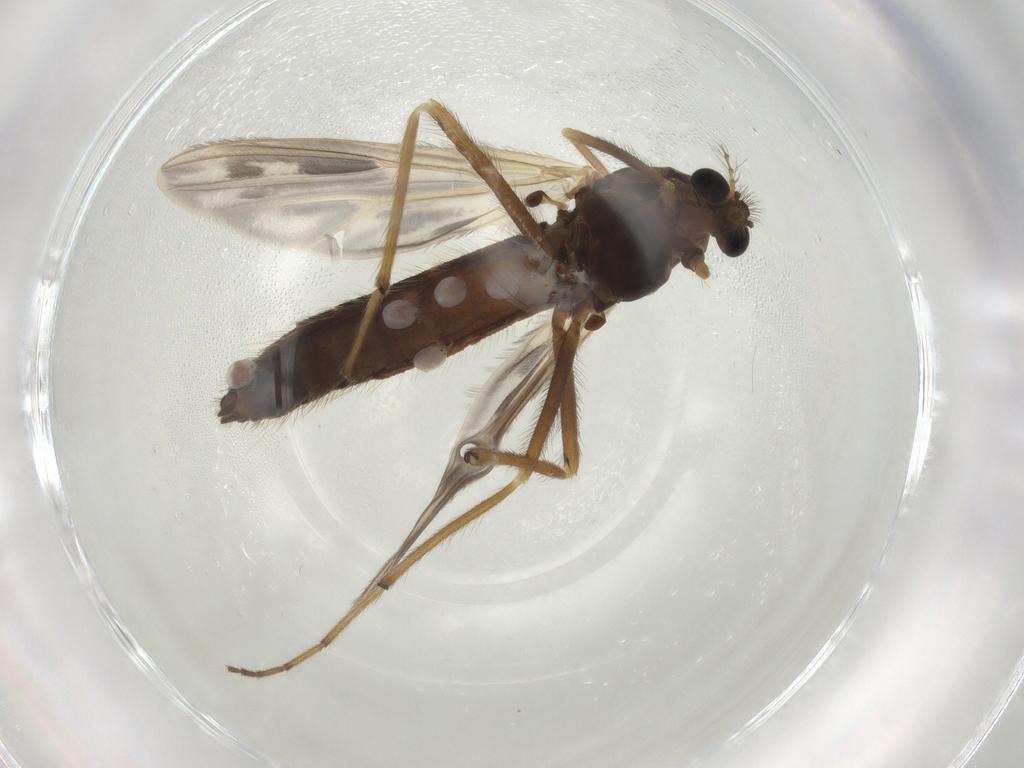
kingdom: Animalia
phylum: Arthropoda
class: Insecta
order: Diptera
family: Chironomidae
